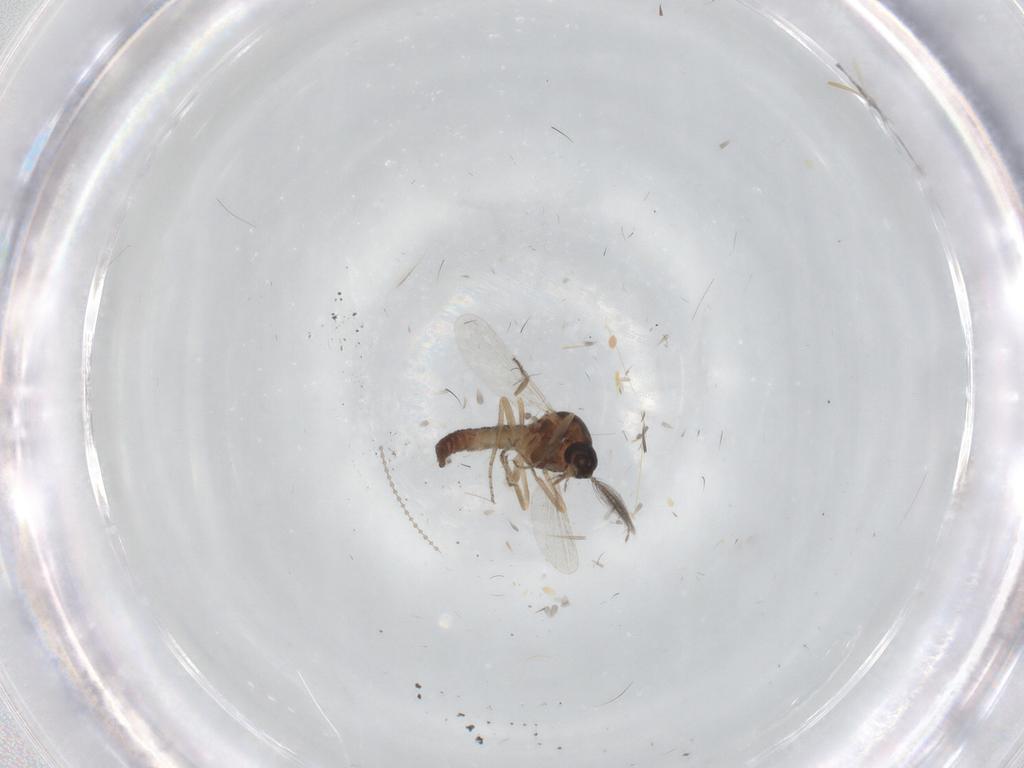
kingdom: Animalia
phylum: Arthropoda
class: Insecta
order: Diptera
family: Ceratopogonidae
